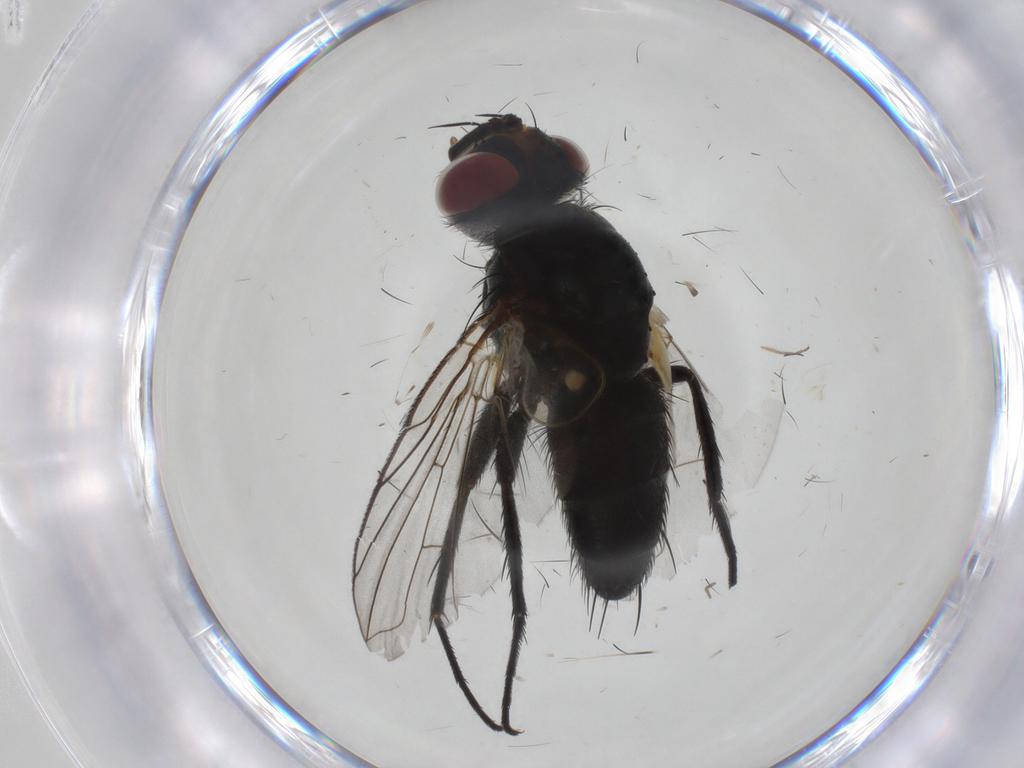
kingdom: Animalia
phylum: Arthropoda
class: Insecta
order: Diptera
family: Tachinidae
